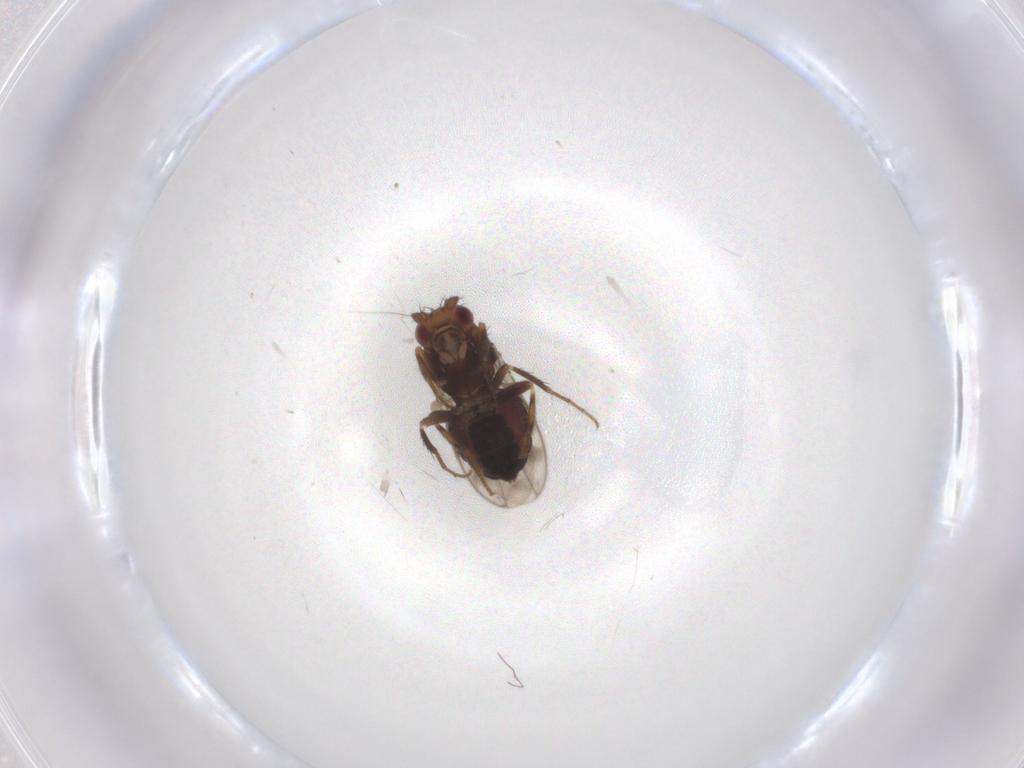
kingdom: Animalia
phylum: Arthropoda
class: Insecta
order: Diptera
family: Sphaeroceridae
